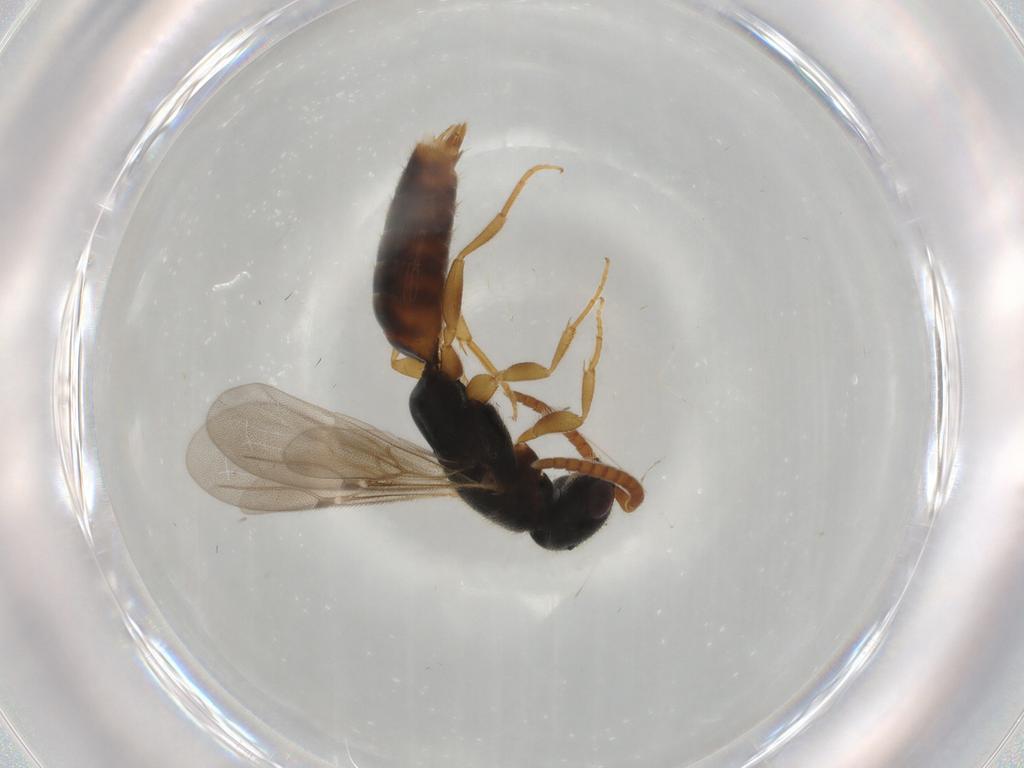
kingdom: Animalia
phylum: Arthropoda
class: Insecta
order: Hymenoptera
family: Bethylidae
